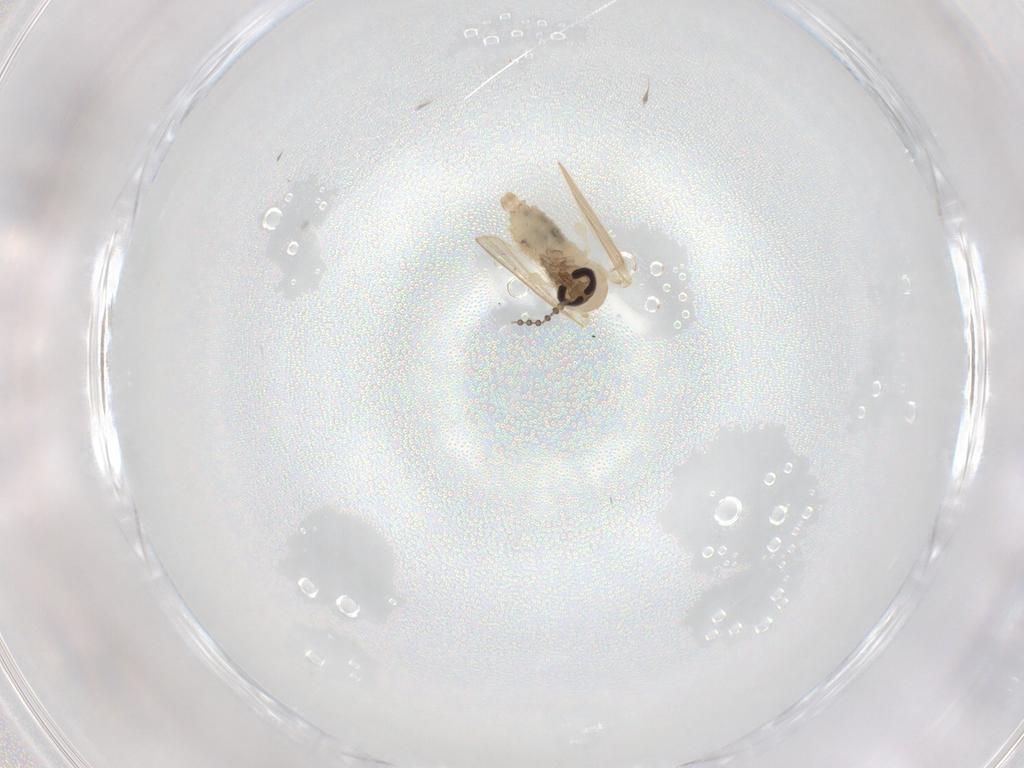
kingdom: Animalia
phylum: Arthropoda
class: Insecta
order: Diptera
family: Psychodidae
